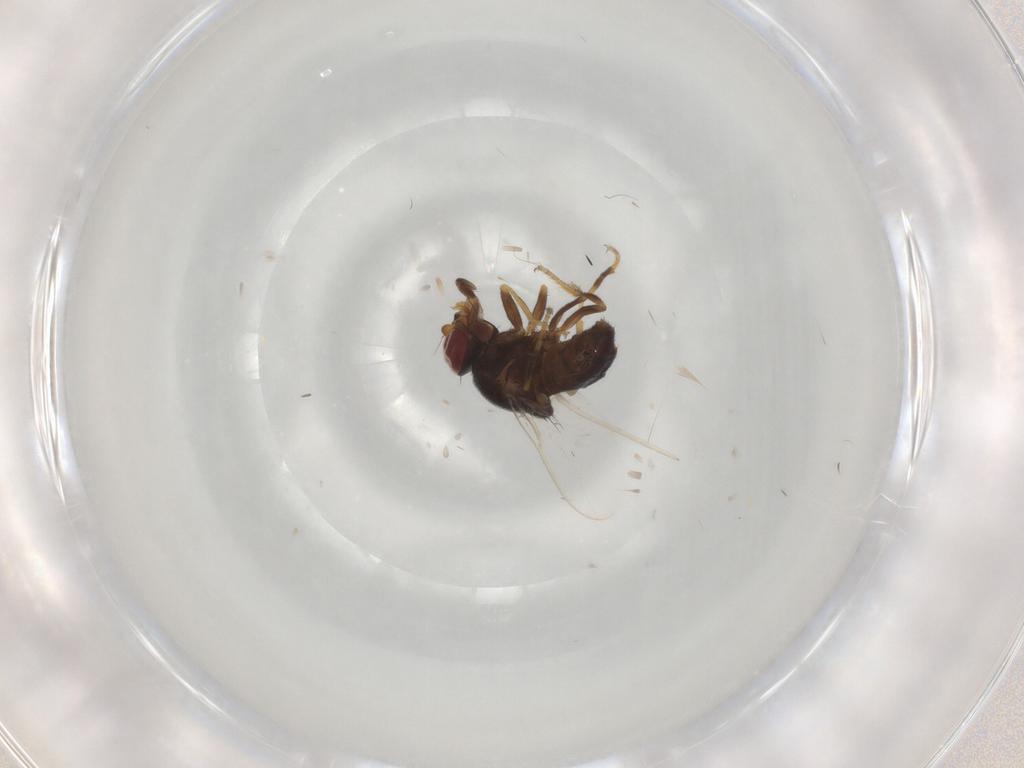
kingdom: Animalia
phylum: Arthropoda
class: Insecta
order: Diptera
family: Chloropidae
